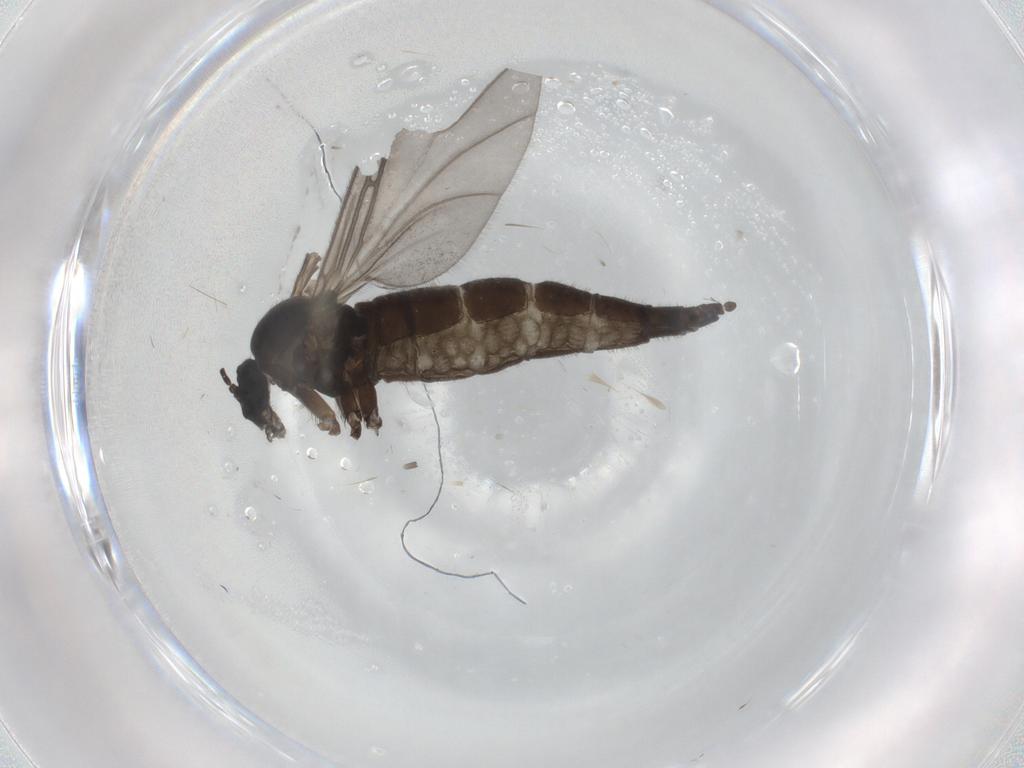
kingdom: Animalia
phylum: Arthropoda
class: Insecta
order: Diptera
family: Sciaridae
